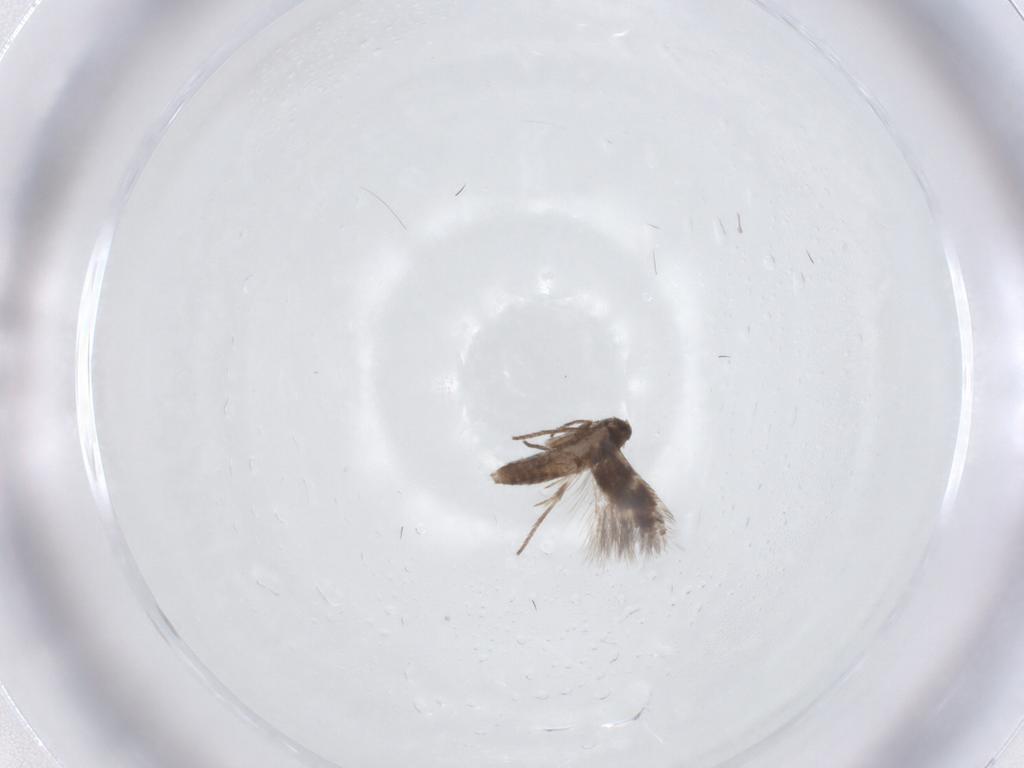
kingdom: Animalia
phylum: Arthropoda
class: Insecta
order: Lepidoptera
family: Lyonetiidae
